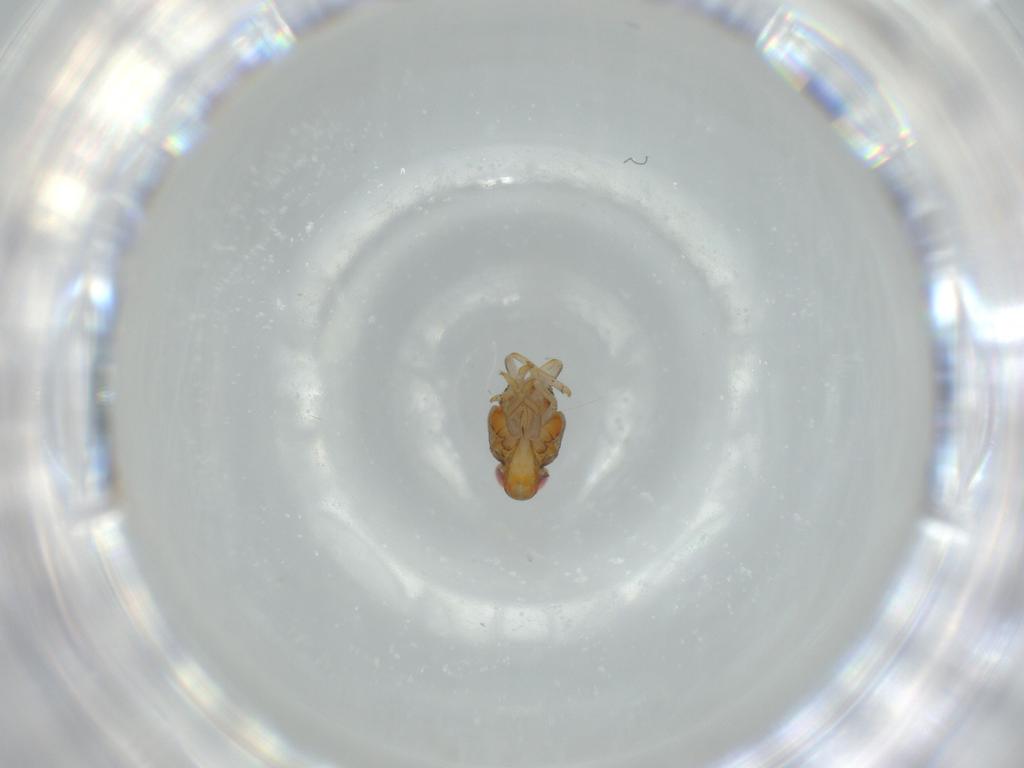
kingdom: Animalia
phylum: Arthropoda
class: Insecta
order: Hemiptera
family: Issidae
